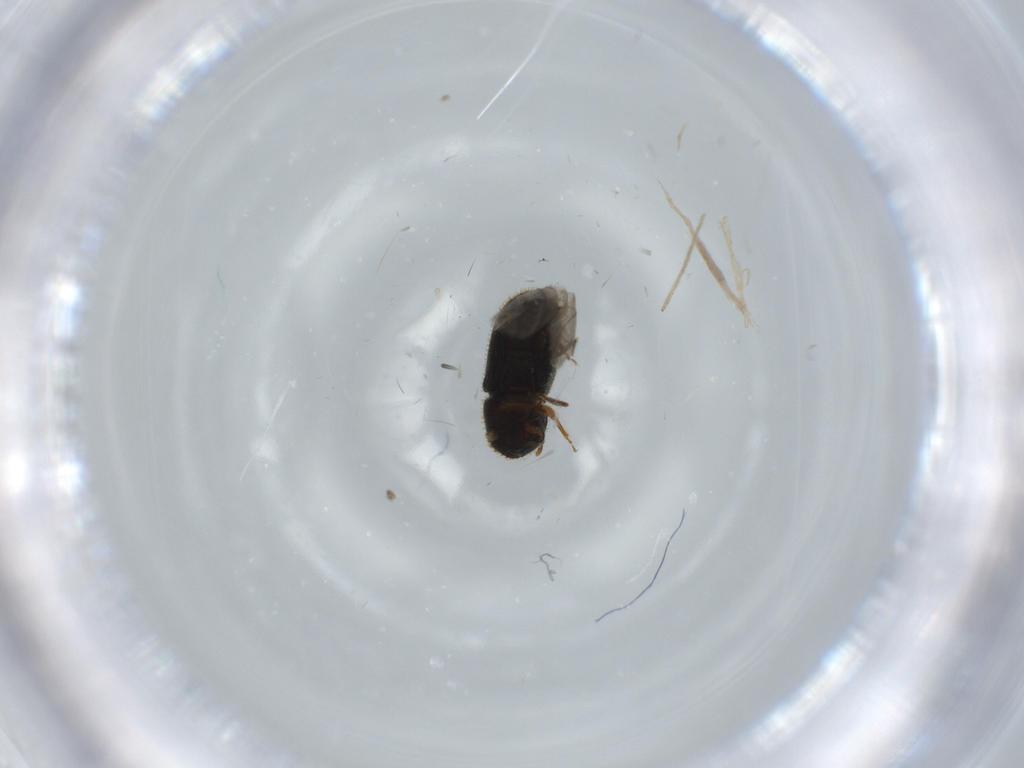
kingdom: Animalia
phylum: Arthropoda
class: Insecta
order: Coleoptera
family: Curculionidae
